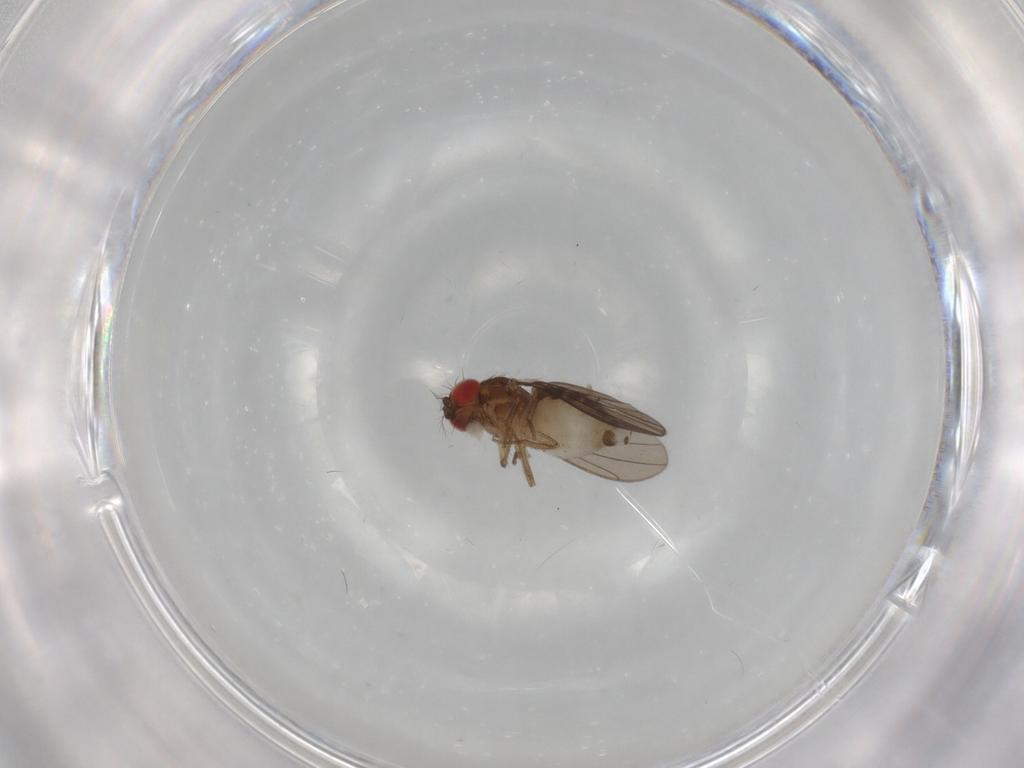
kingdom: Animalia
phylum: Arthropoda
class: Insecta
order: Diptera
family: Drosophilidae
